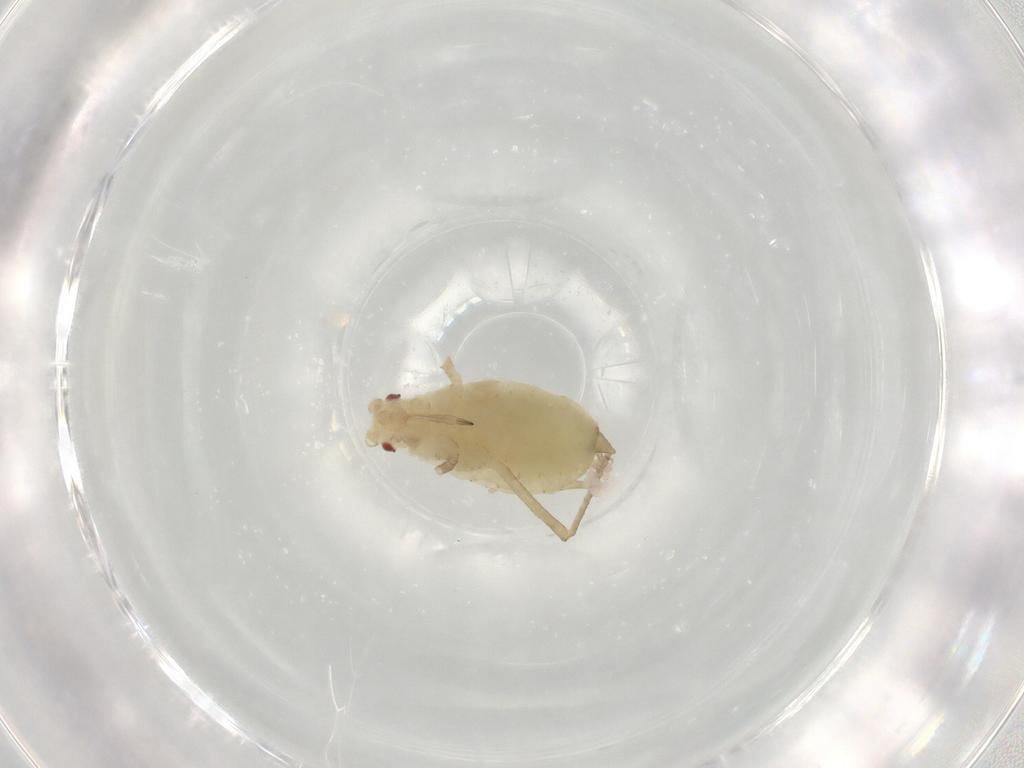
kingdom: Animalia
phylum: Arthropoda
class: Insecta
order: Hemiptera
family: Aphididae
